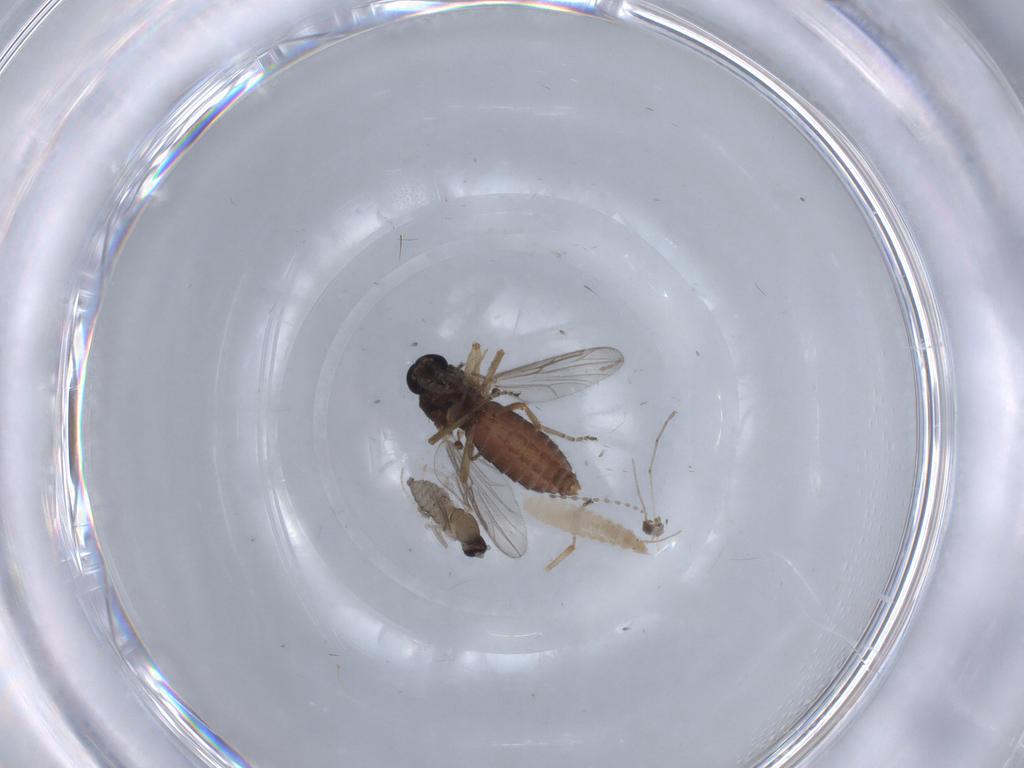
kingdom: Animalia
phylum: Arthropoda
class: Insecta
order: Diptera
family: Ceratopogonidae
